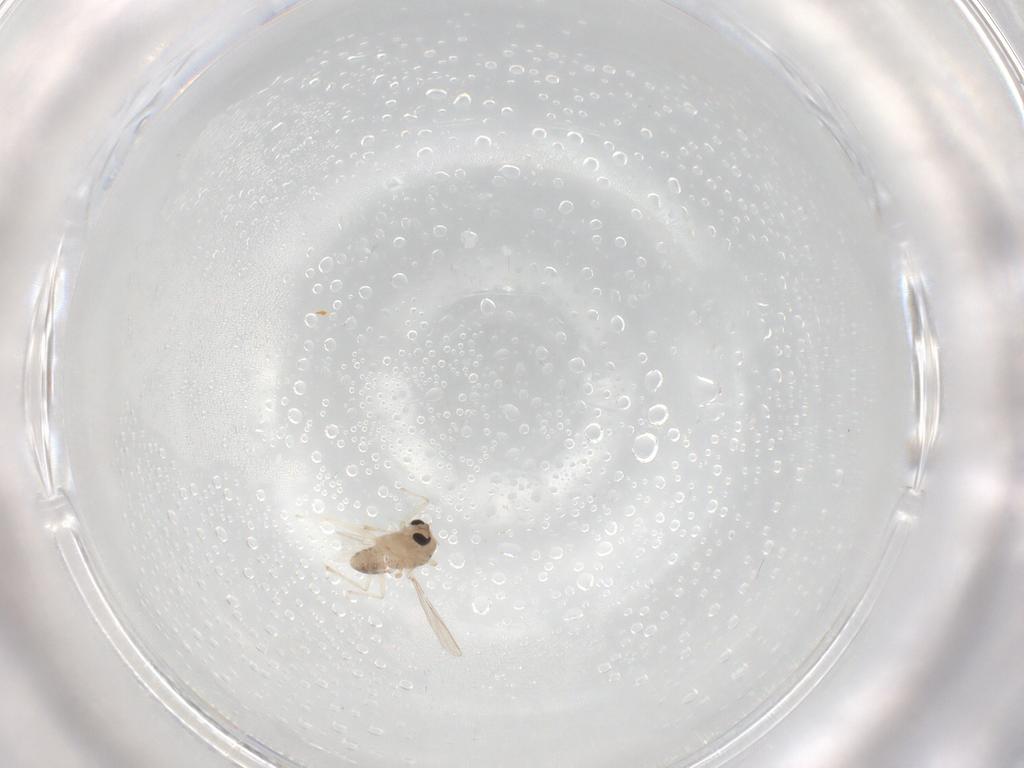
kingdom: Animalia
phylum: Arthropoda
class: Insecta
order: Diptera
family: Chironomidae
